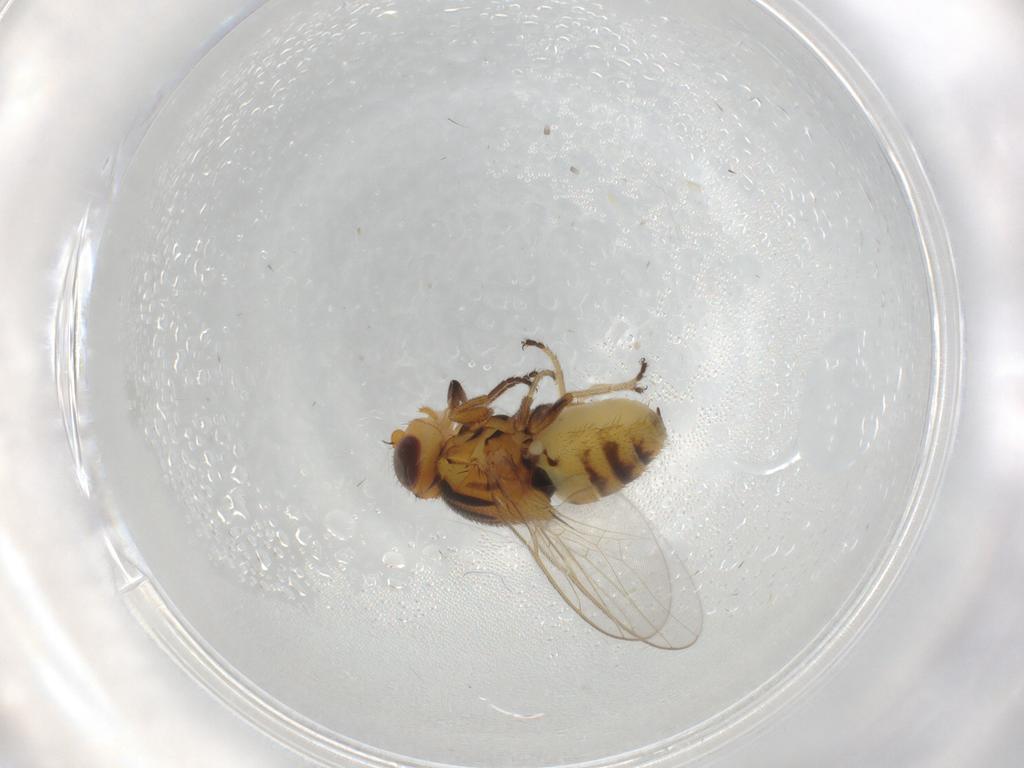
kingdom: Animalia
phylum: Arthropoda
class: Insecta
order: Diptera
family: Chloropidae
